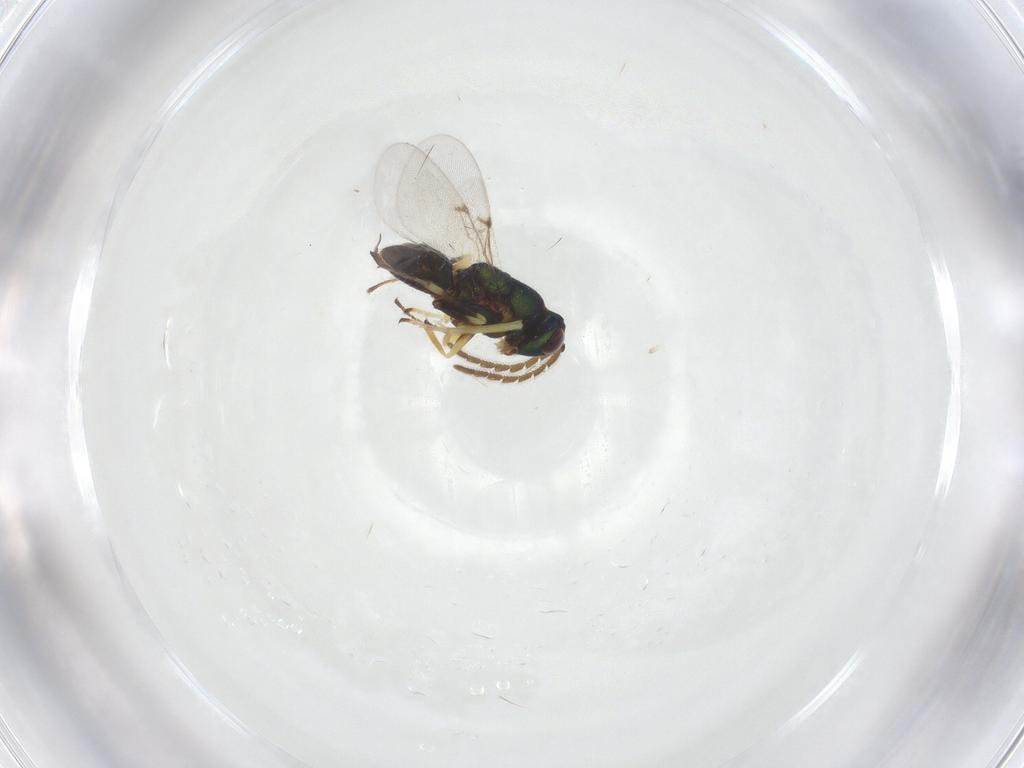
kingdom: Animalia
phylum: Arthropoda
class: Insecta
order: Hymenoptera
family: Encyrtidae
